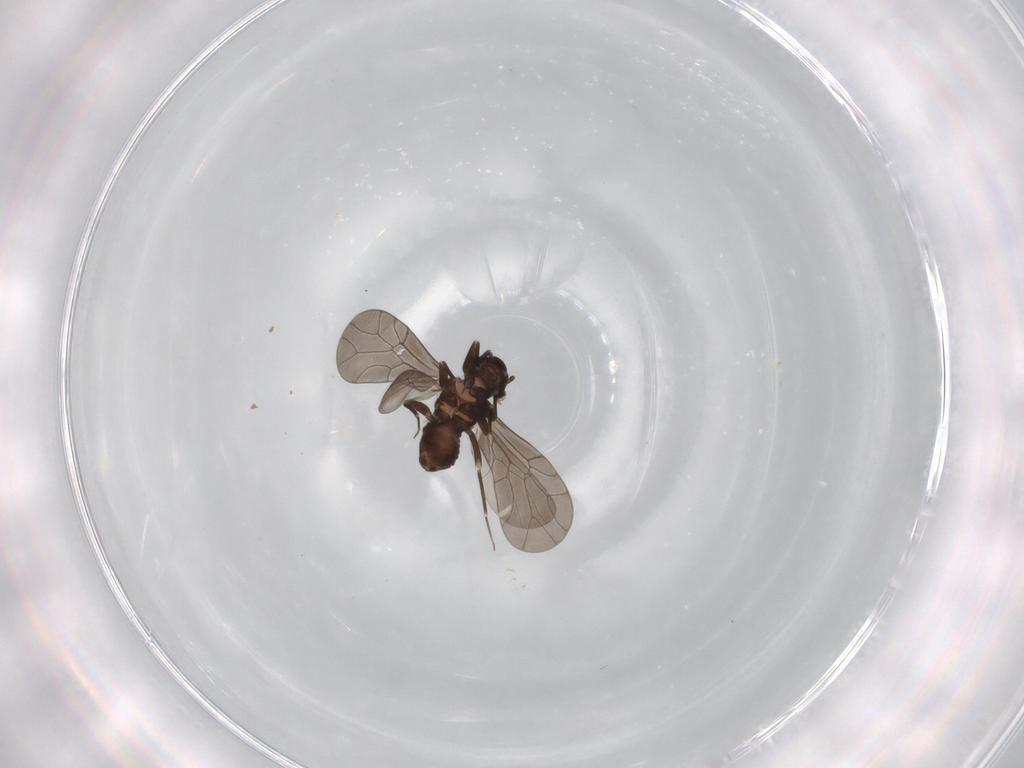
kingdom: Animalia
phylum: Arthropoda
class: Insecta
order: Psocodea
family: Lepidopsocidae
